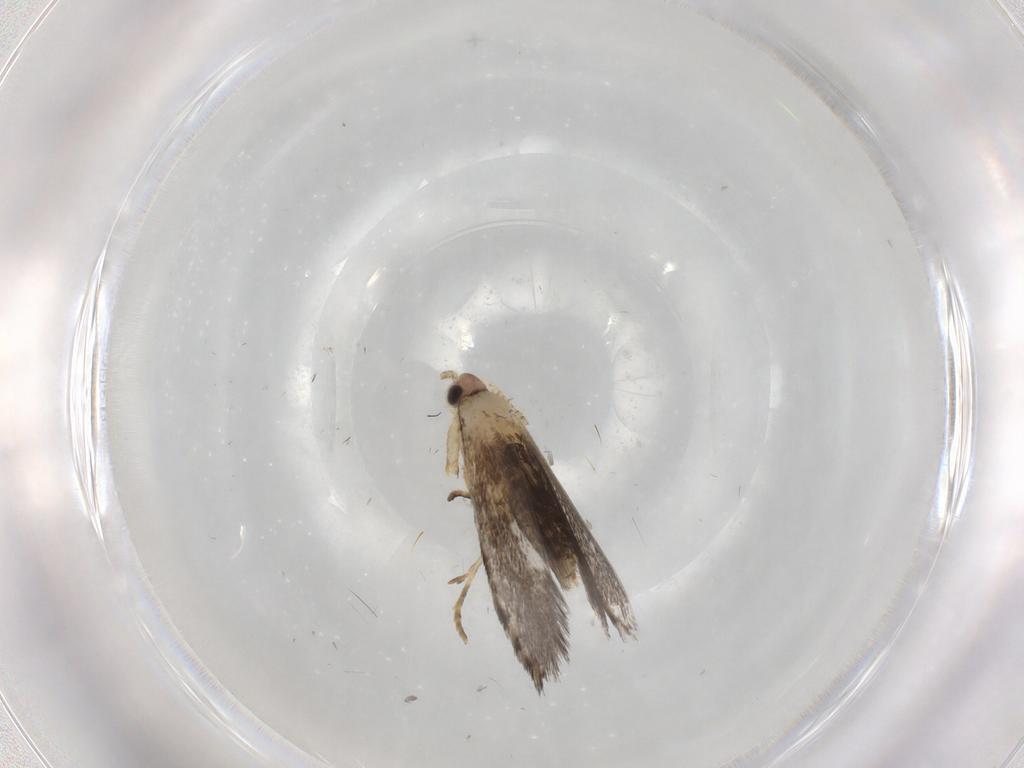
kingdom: Animalia
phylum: Arthropoda
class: Insecta
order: Lepidoptera
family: Tineidae
